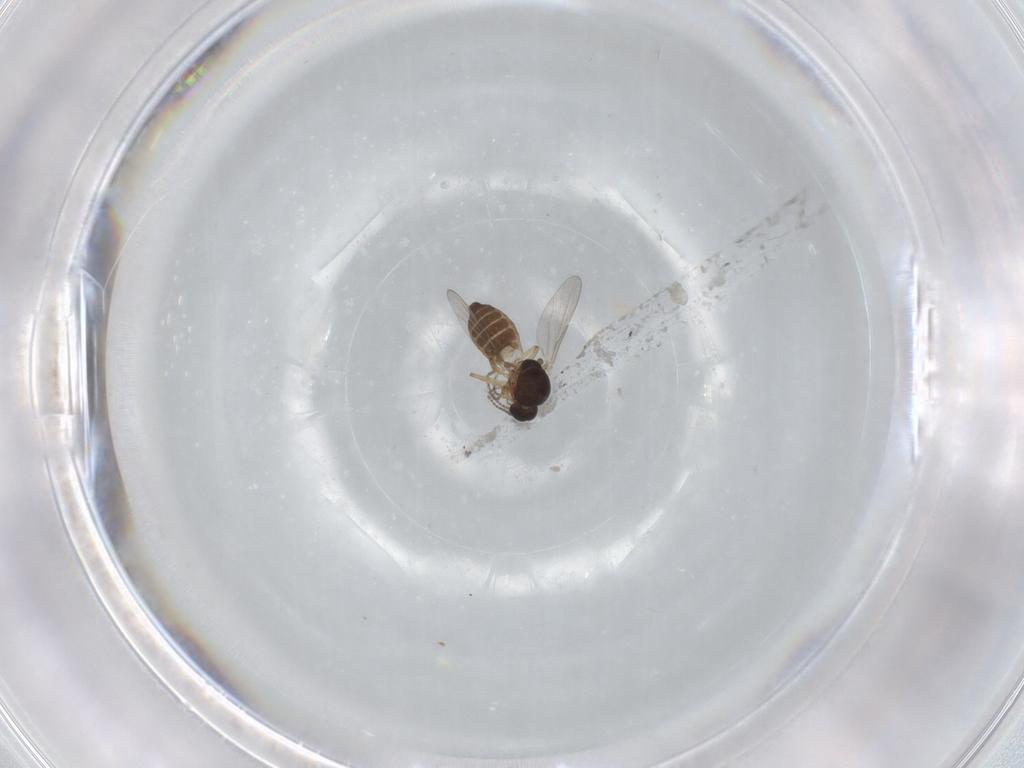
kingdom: Animalia
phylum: Arthropoda
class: Insecta
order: Diptera
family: Ceratopogonidae
